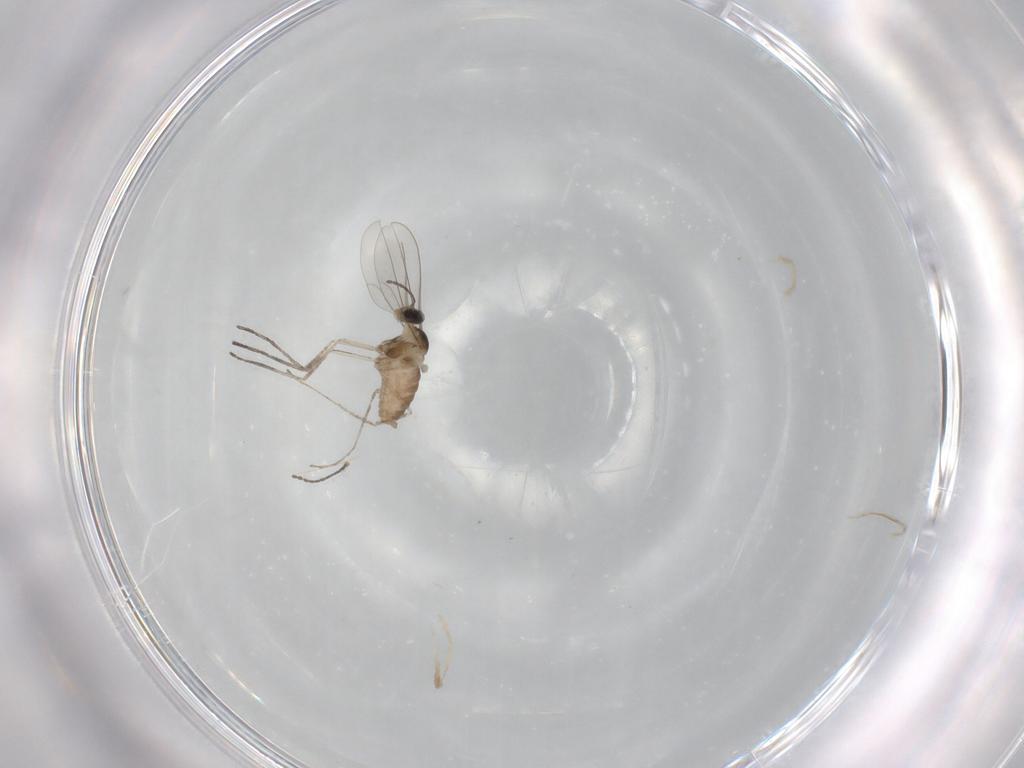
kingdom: Animalia
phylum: Arthropoda
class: Insecta
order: Diptera
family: Cecidomyiidae
